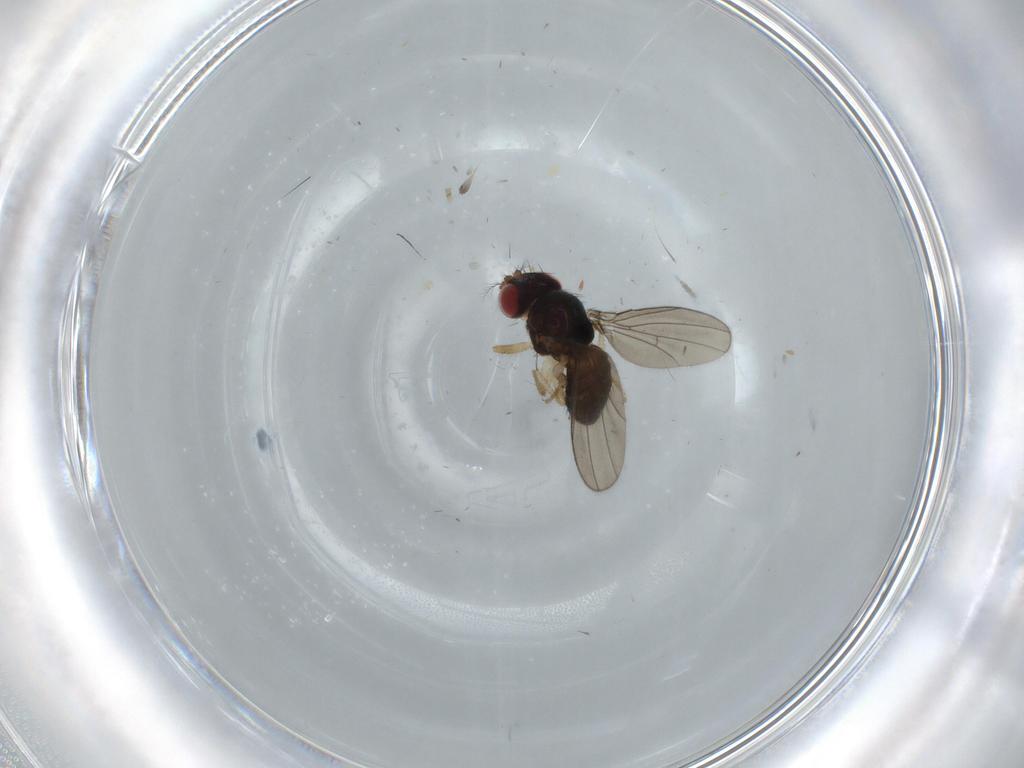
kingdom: Animalia
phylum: Arthropoda
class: Insecta
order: Diptera
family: Drosophilidae
